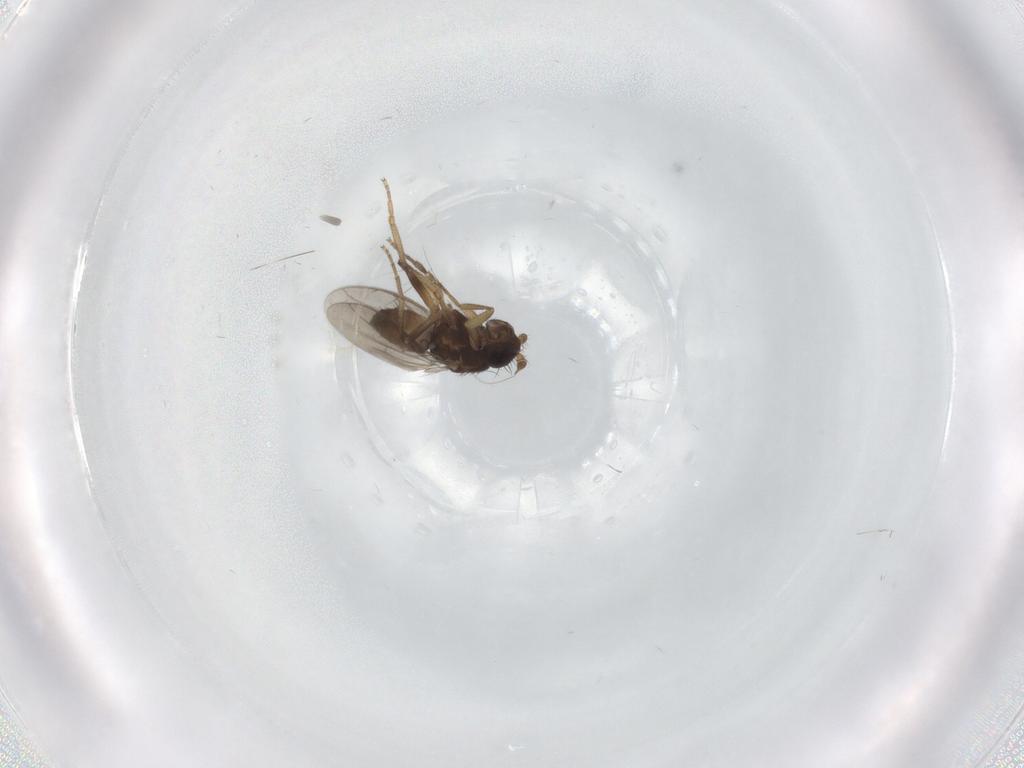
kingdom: Animalia
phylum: Arthropoda
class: Insecta
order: Diptera
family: Sphaeroceridae
